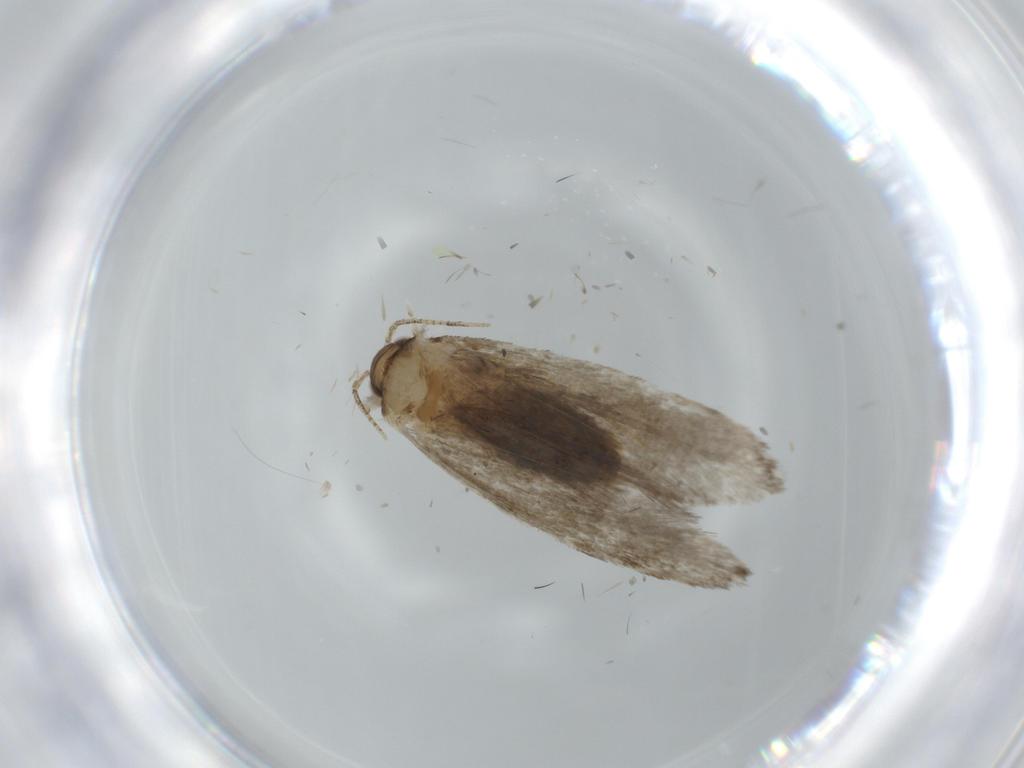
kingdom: Animalia
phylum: Arthropoda
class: Insecta
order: Lepidoptera
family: Tineidae
